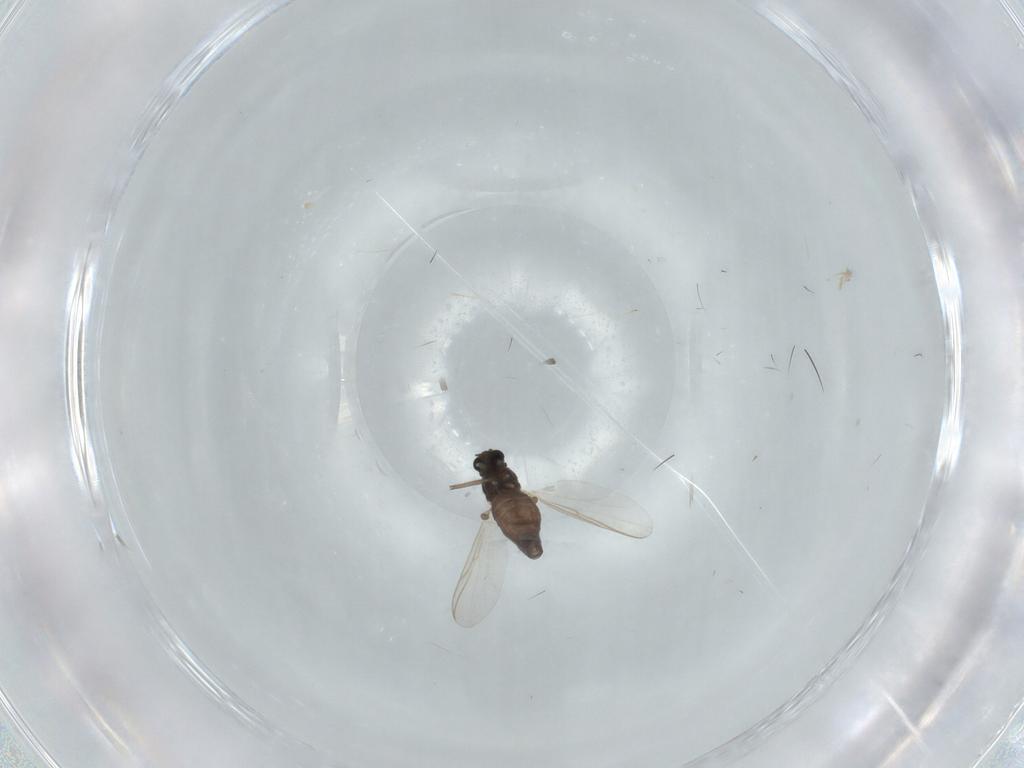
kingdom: Animalia
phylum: Arthropoda
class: Insecta
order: Diptera
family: Chironomidae
